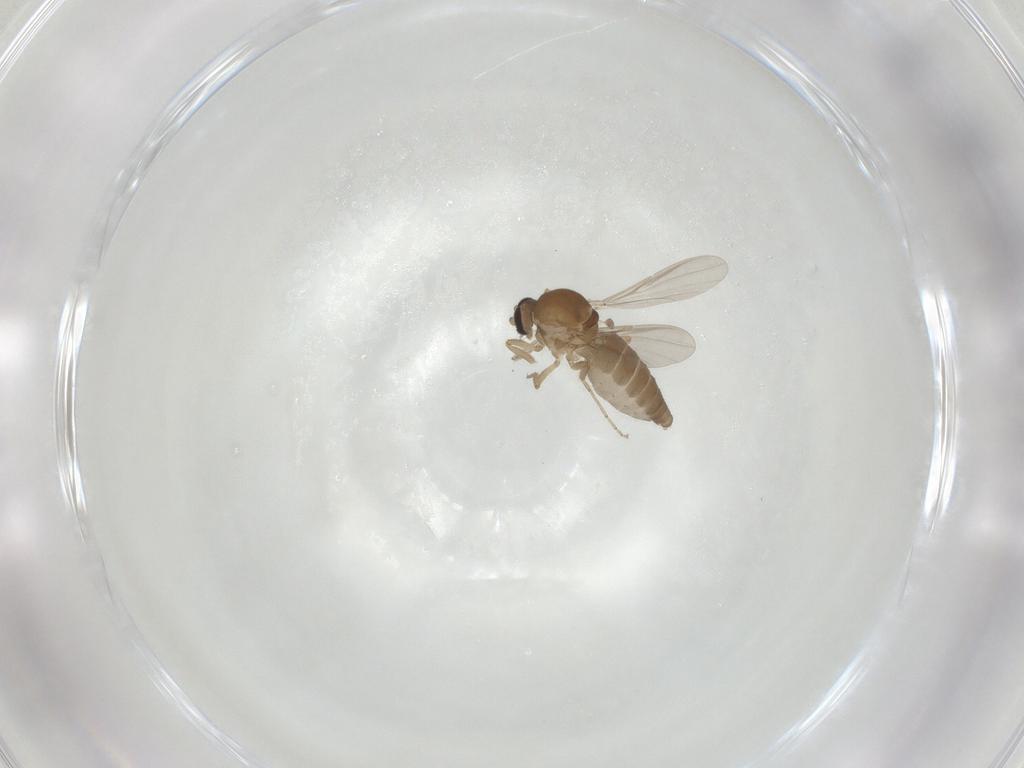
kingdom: Animalia
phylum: Arthropoda
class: Insecta
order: Diptera
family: Ceratopogonidae
